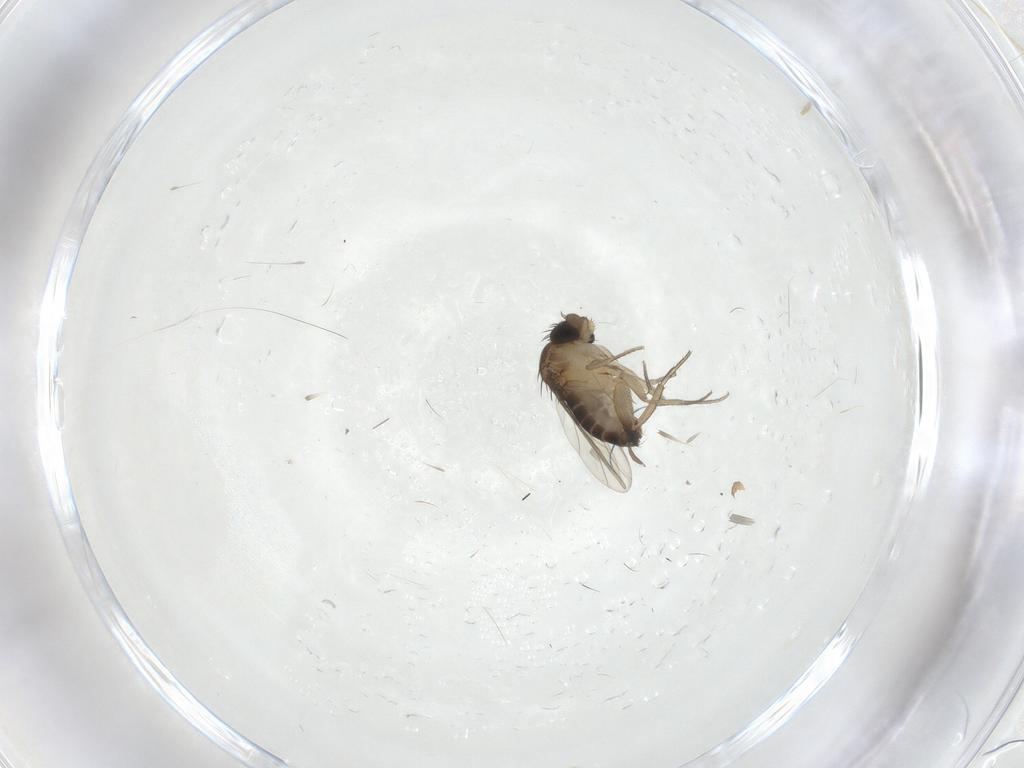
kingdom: Animalia
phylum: Arthropoda
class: Insecta
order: Diptera
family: Phoridae
